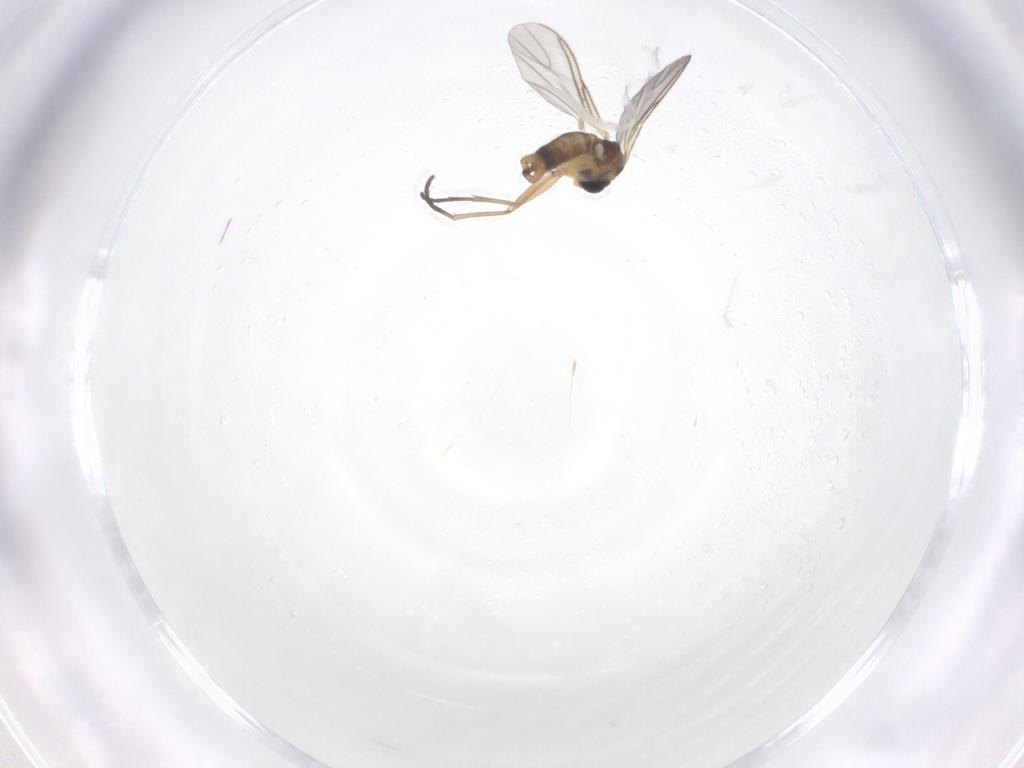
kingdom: Animalia
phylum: Arthropoda
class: Insecta
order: Diptera
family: Sciaridae
